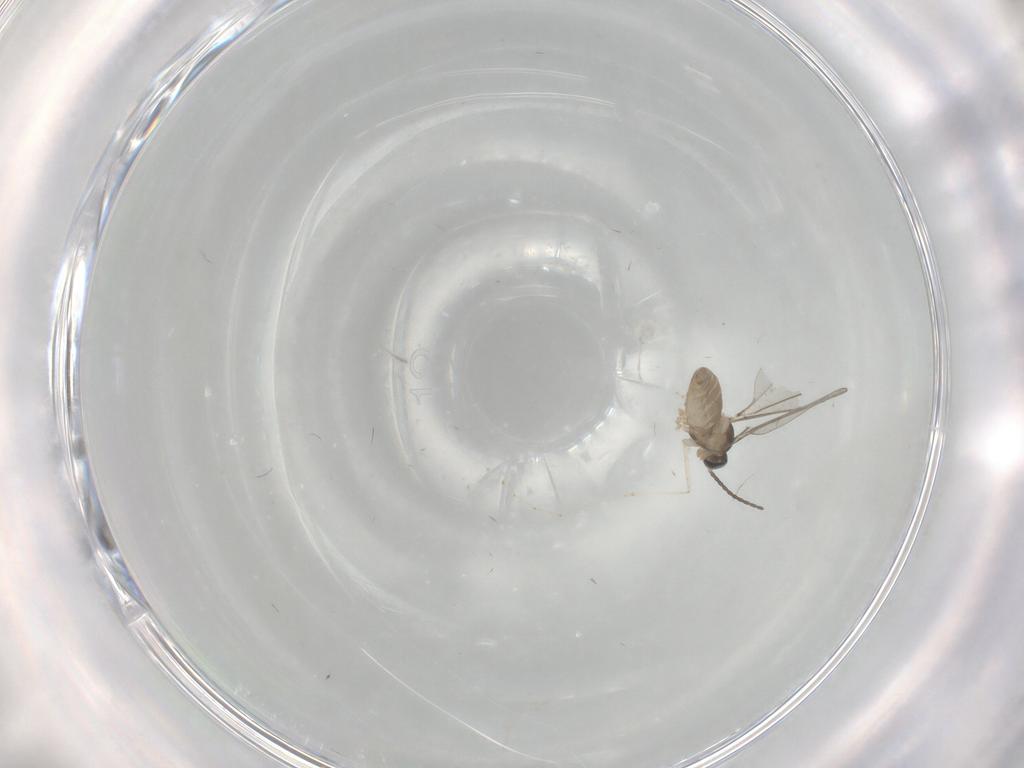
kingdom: Animalia
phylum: Arthropoda
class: Insecta
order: Diptera
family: Cecidomyiidae
